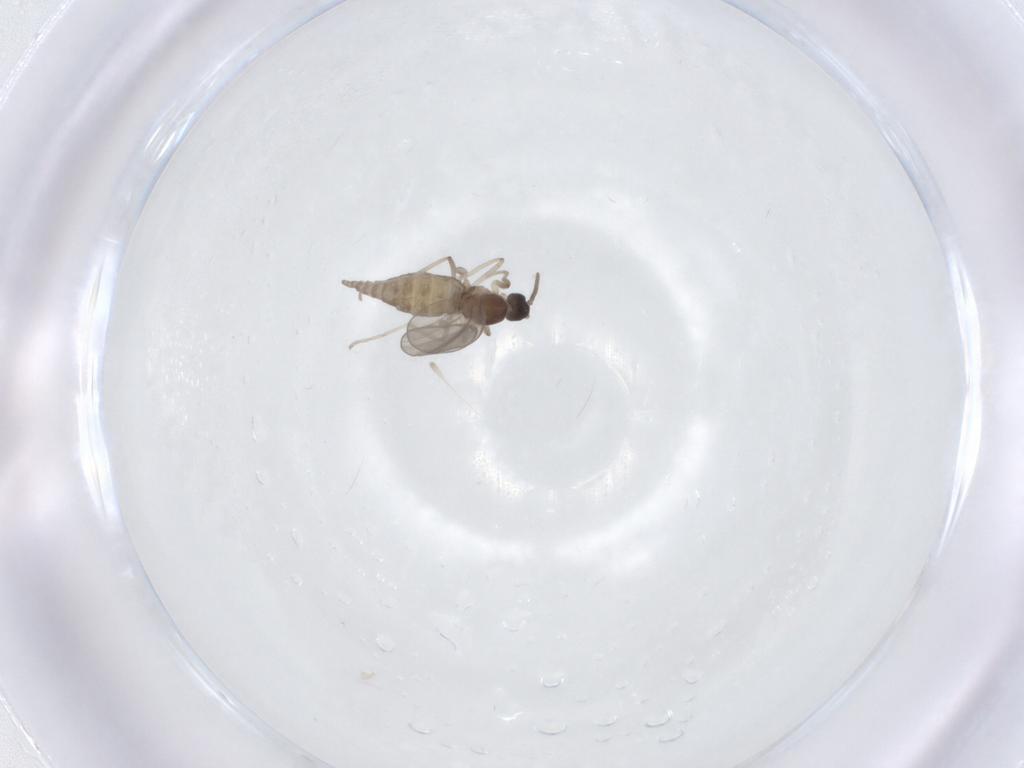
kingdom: Animalia
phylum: Arthropoda
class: Insecta
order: Diptera
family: Cecidomyiidae
